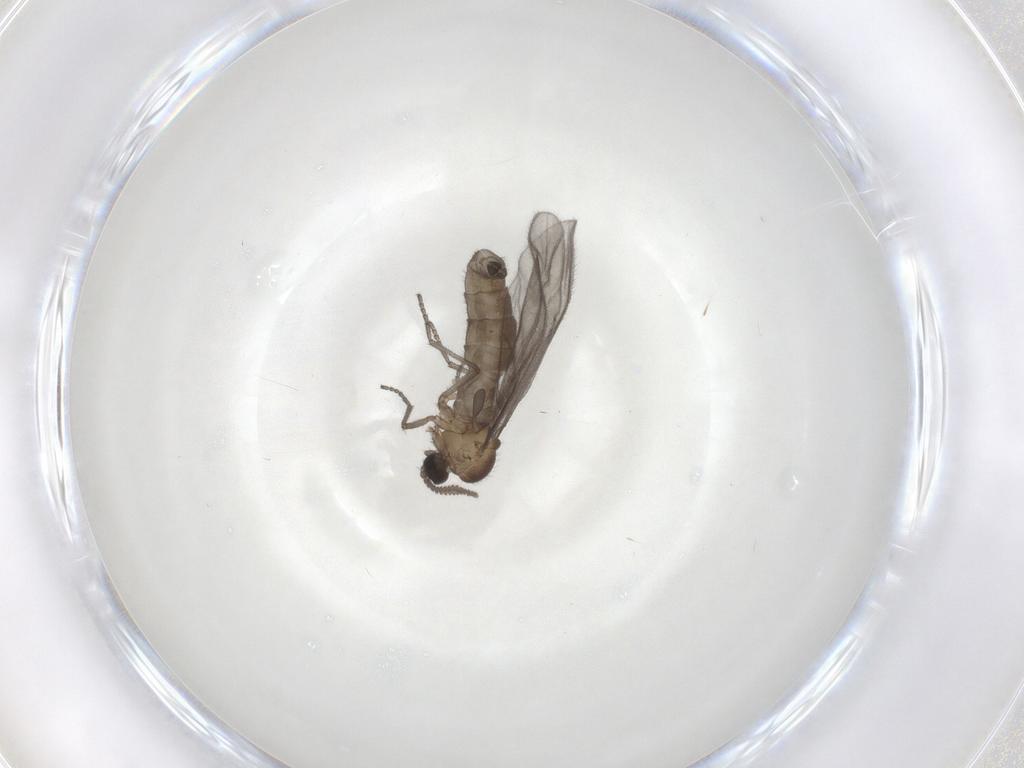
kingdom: Animalia
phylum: Arthropoda
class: Insecta
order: Diptera
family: Sciaridae
